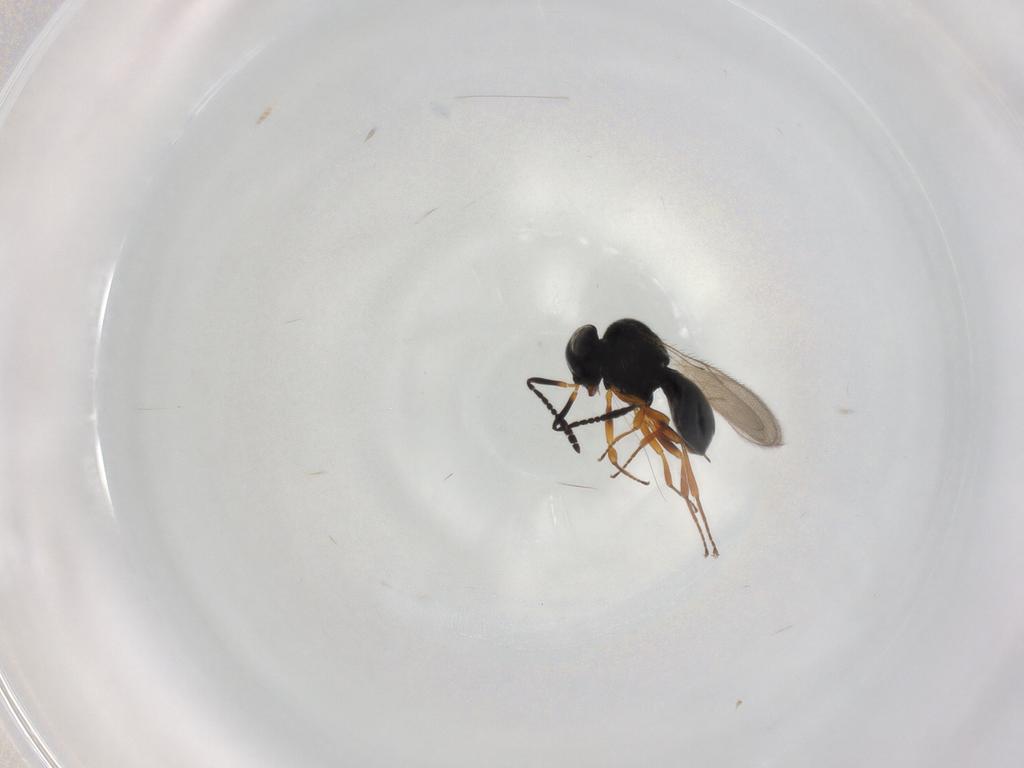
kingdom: Animalia
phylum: Arthropoda
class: Insecta
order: Hymenoptera
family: Scelionidae
